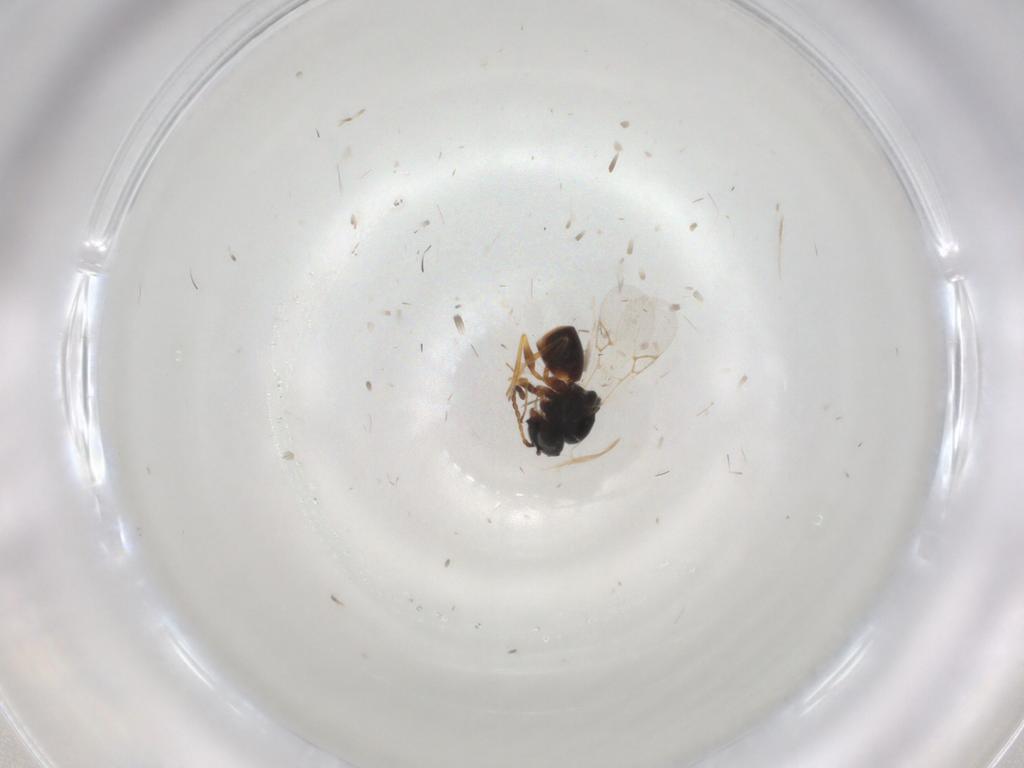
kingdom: Animalia
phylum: Arthropoda
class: Insecta
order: Hymenoptera
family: Figitidae
